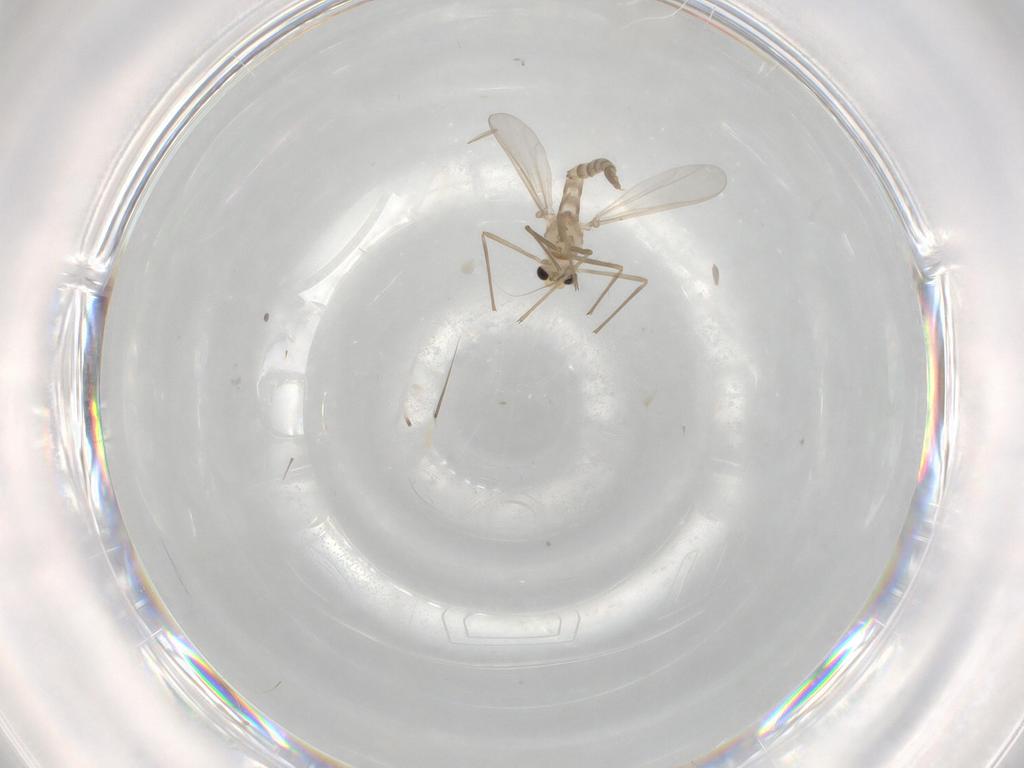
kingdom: Animalia
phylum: Arthropoda
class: Insecta
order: Diptera
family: Chironomidae
